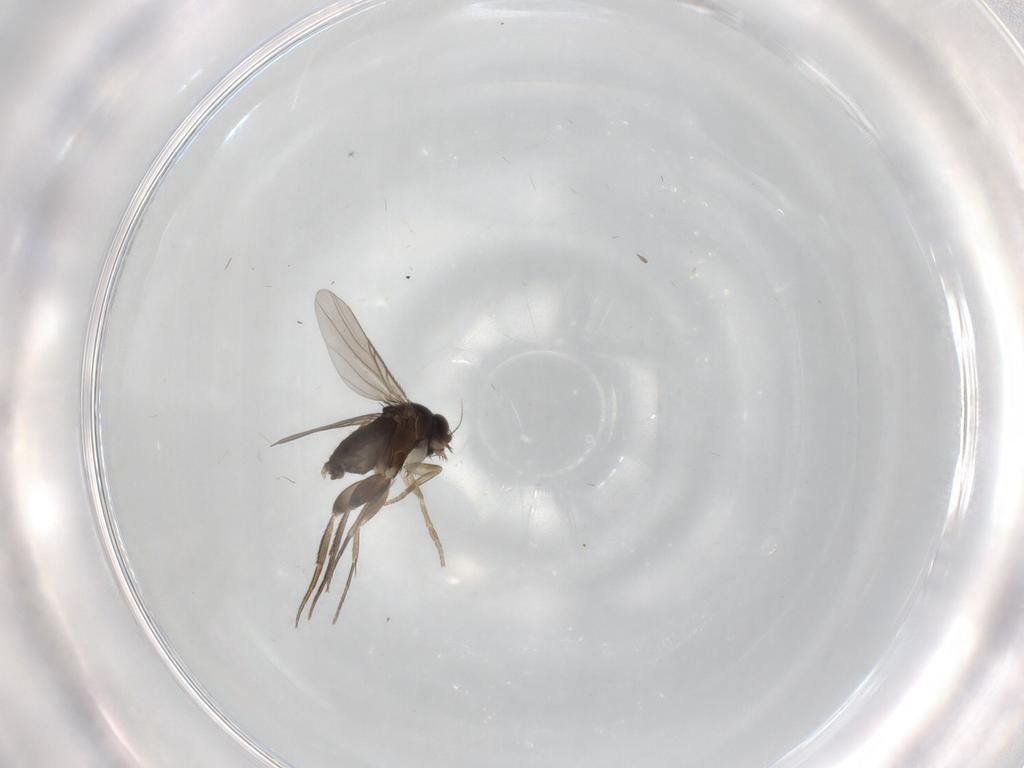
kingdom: Animalia
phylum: Arthropoda
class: Insecta
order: Diptera
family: Phoridae
